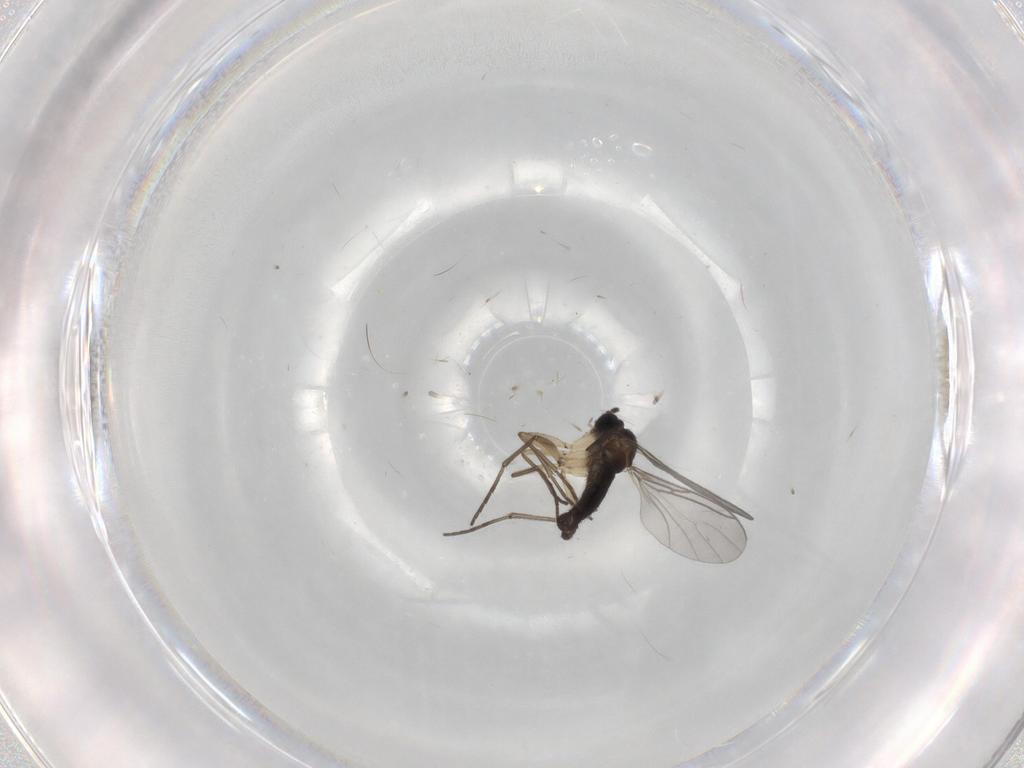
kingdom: Animalia
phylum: Arthropoda
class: Insecta
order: Diptera
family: Sciaridae
